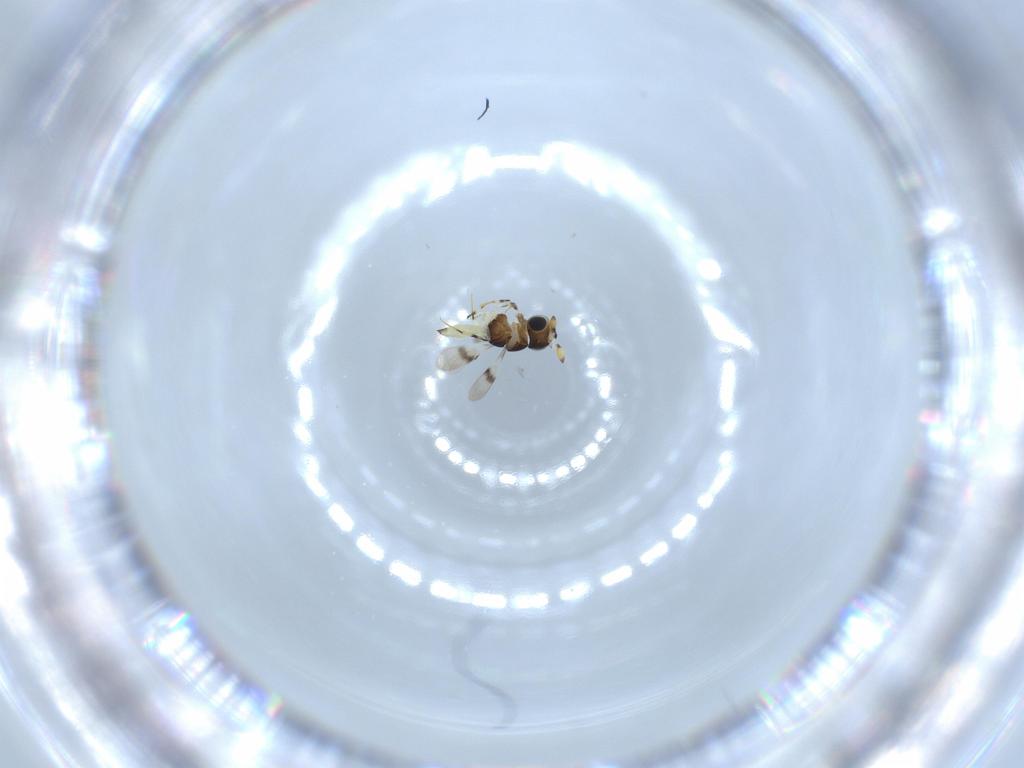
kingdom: Animalia
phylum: Arthropoda
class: Insecta
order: Hymenoptera
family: Scelionidae
